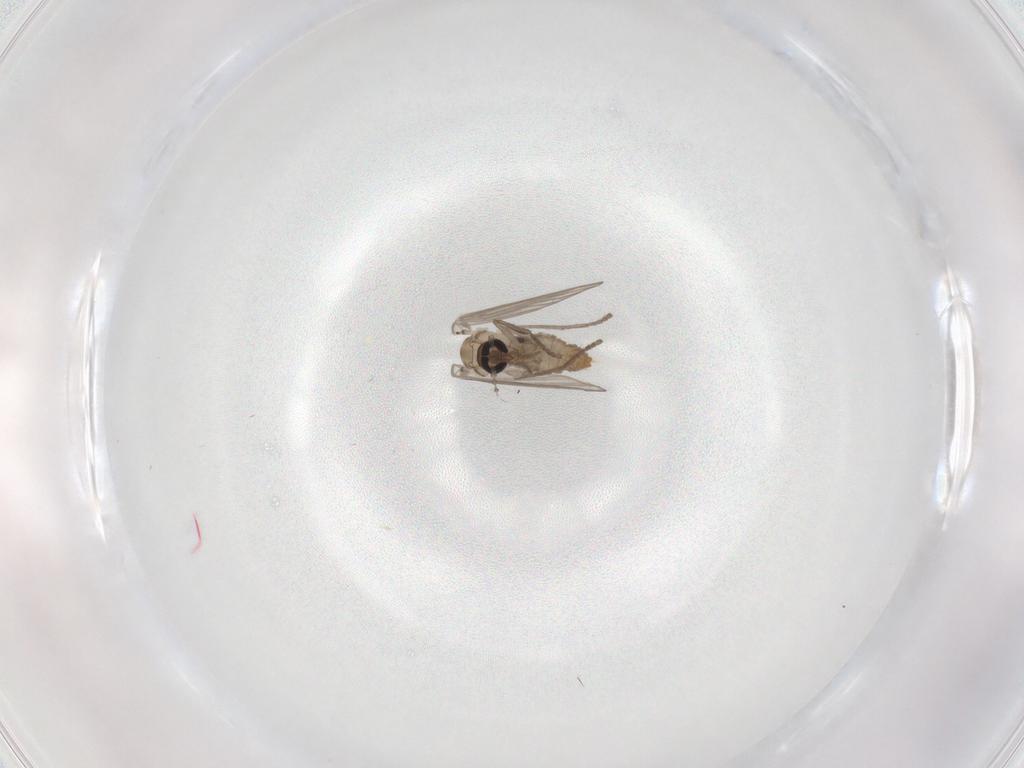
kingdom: Animalia
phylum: Arthropoda
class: Insecta
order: Diptera
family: Psychodidae
